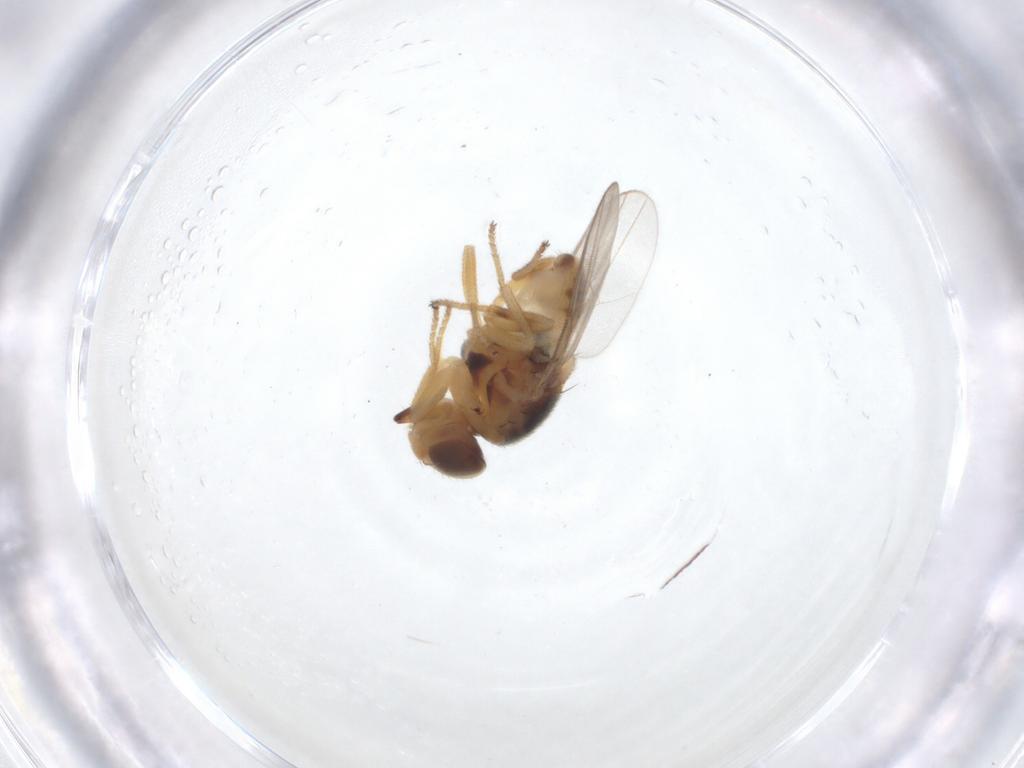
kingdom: Animalia
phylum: Arthropoda
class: Insecta
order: Diptera
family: Chloropidae
